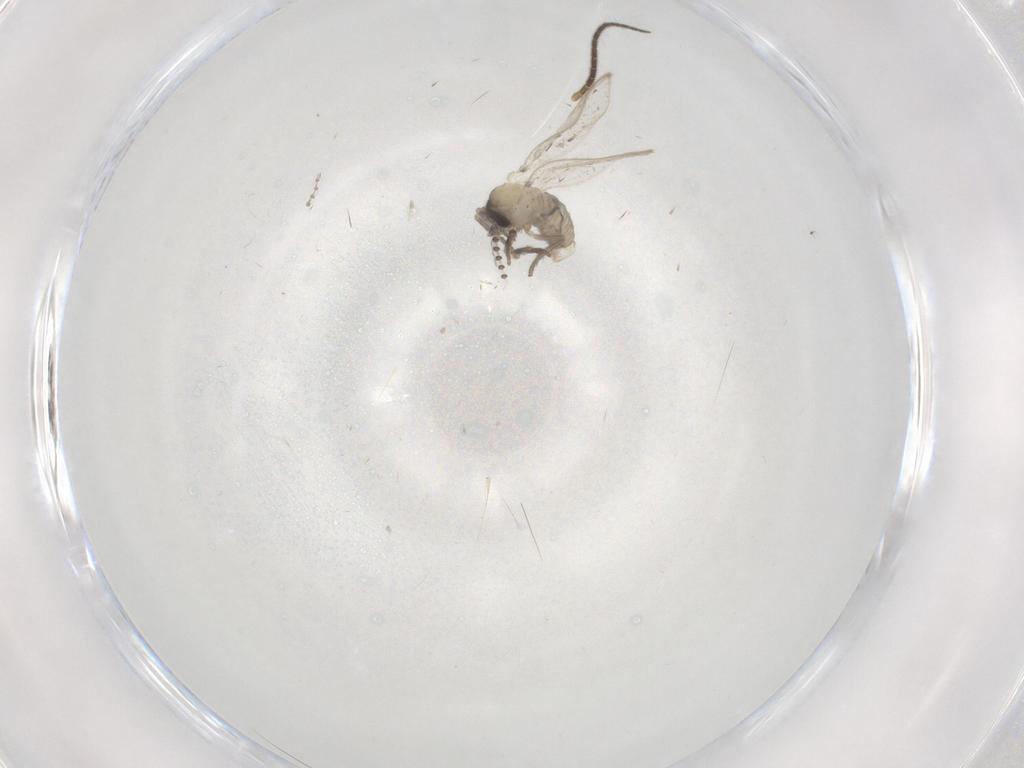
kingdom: Animalia
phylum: Arthropoda
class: Insecta
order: Diptera
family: Psychodidae
